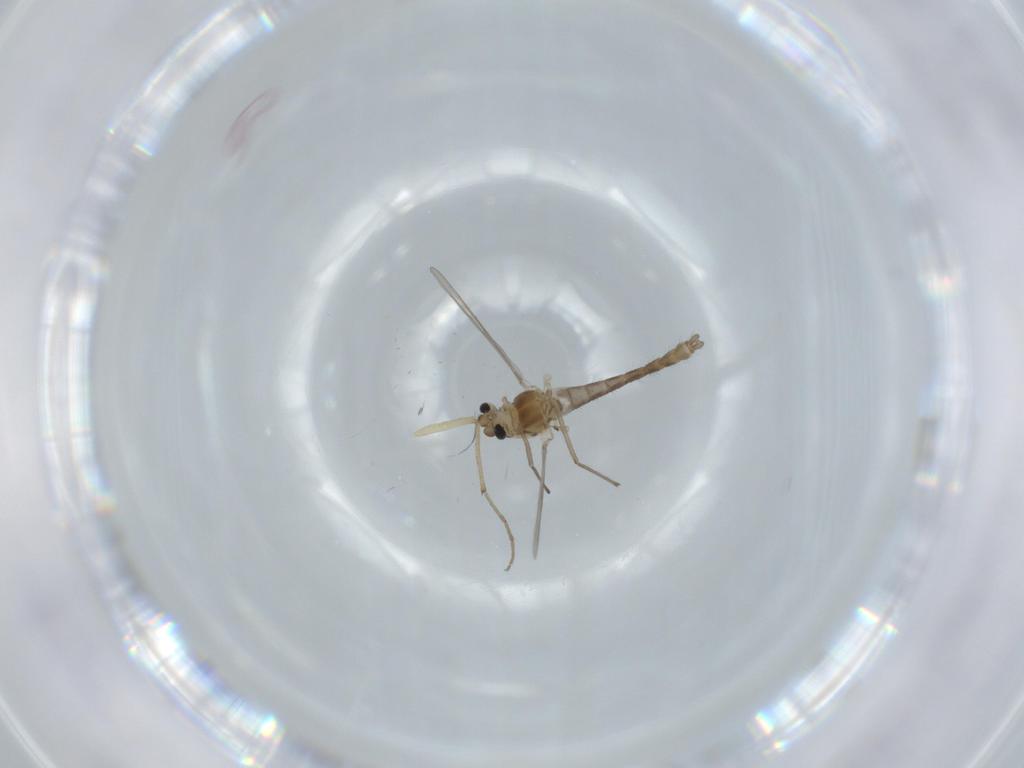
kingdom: Animalia
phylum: Arthropoda
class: Insecta
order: Diptera
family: Chironomidae
